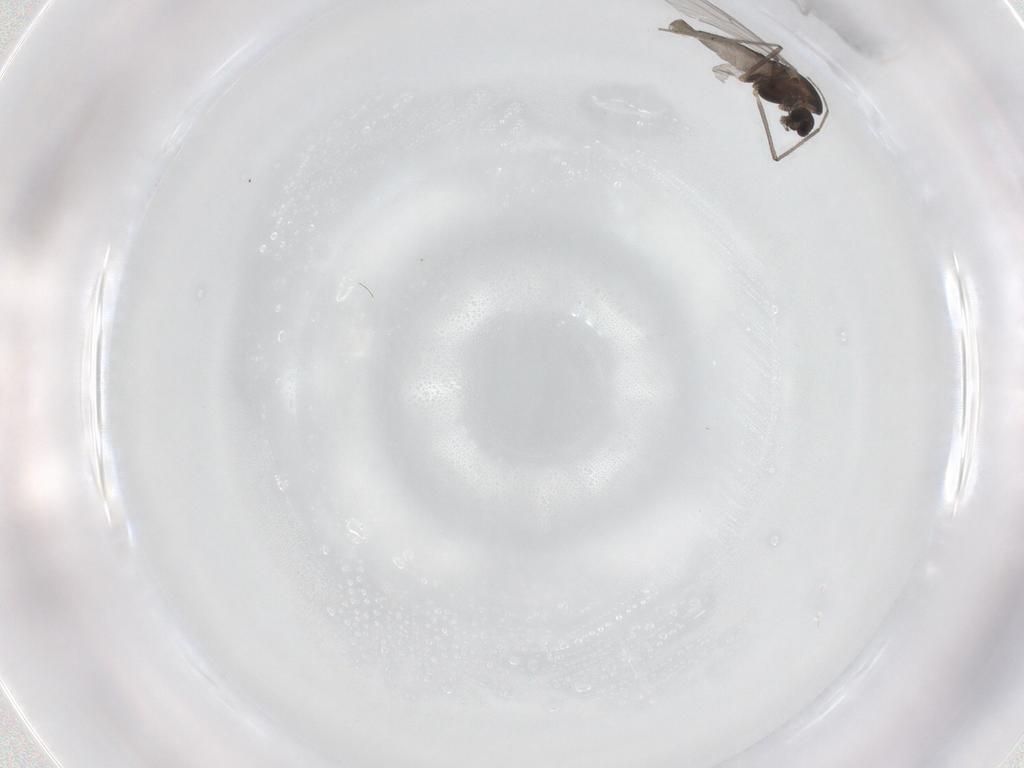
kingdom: Animalia
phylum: Arthropoda
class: Insecta
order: Diptera
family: Chironomidae
